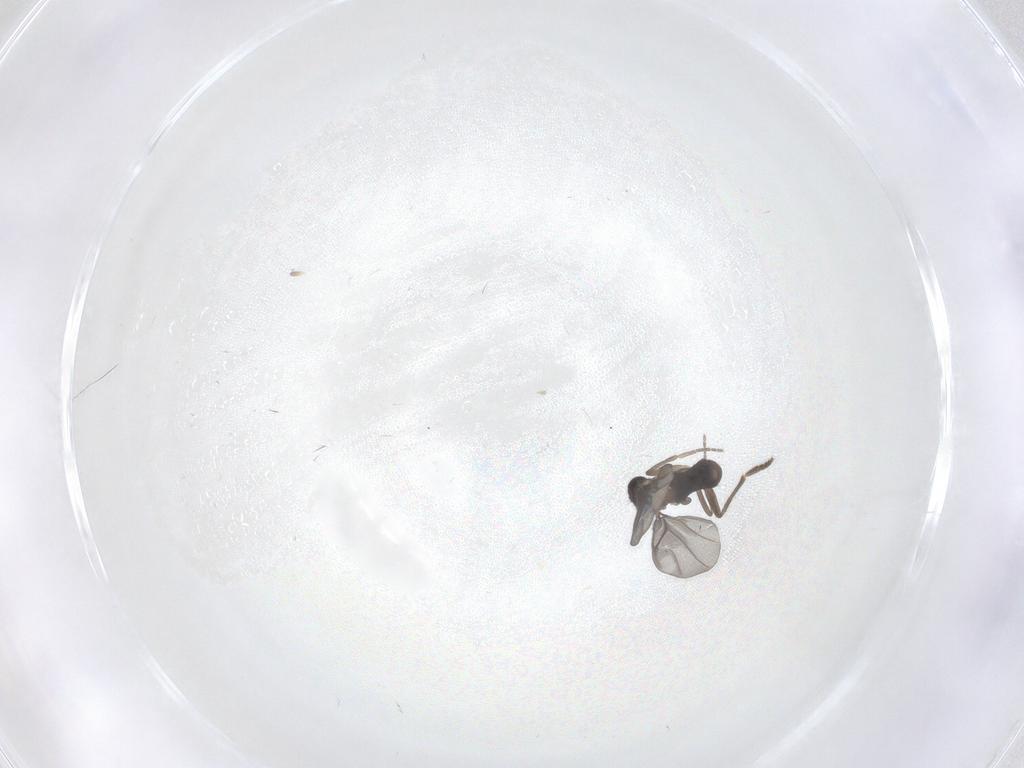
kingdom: Animalia
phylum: Arthropoda
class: Insecta
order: Diptera
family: Phoridae
